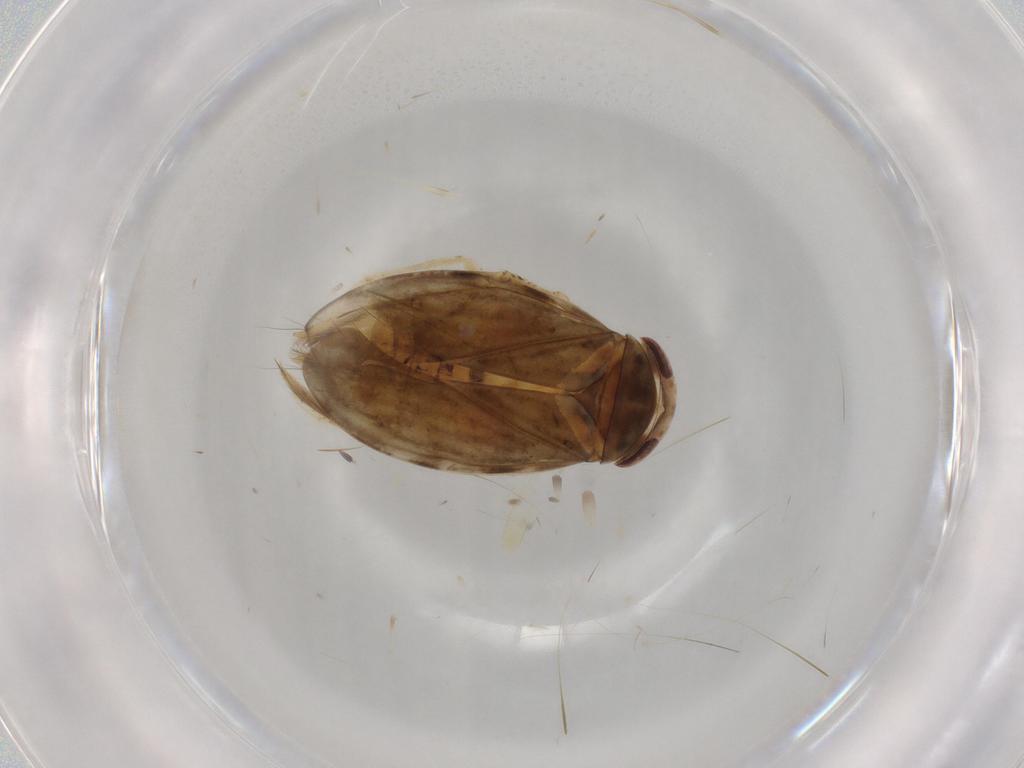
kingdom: Animalia
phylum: Arthropoda
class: Insecta
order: Hemiptera
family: Corixidae
